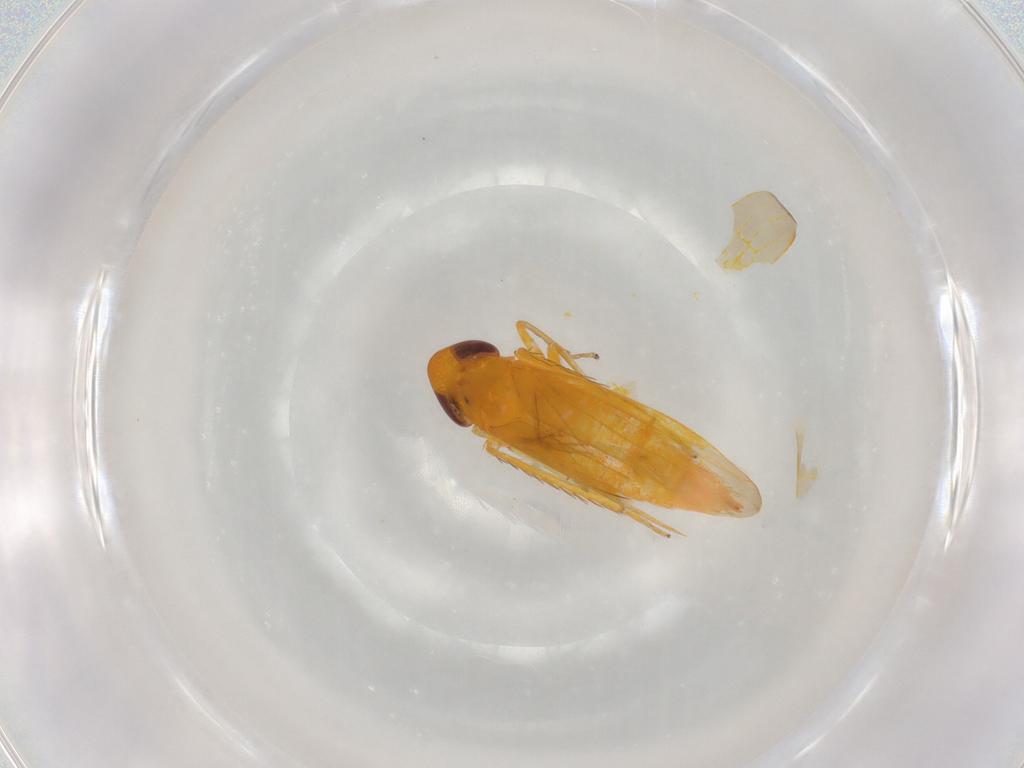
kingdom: Animalia
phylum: Arthropoda
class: Insecta
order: Hemiptera
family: Cicadellidae
